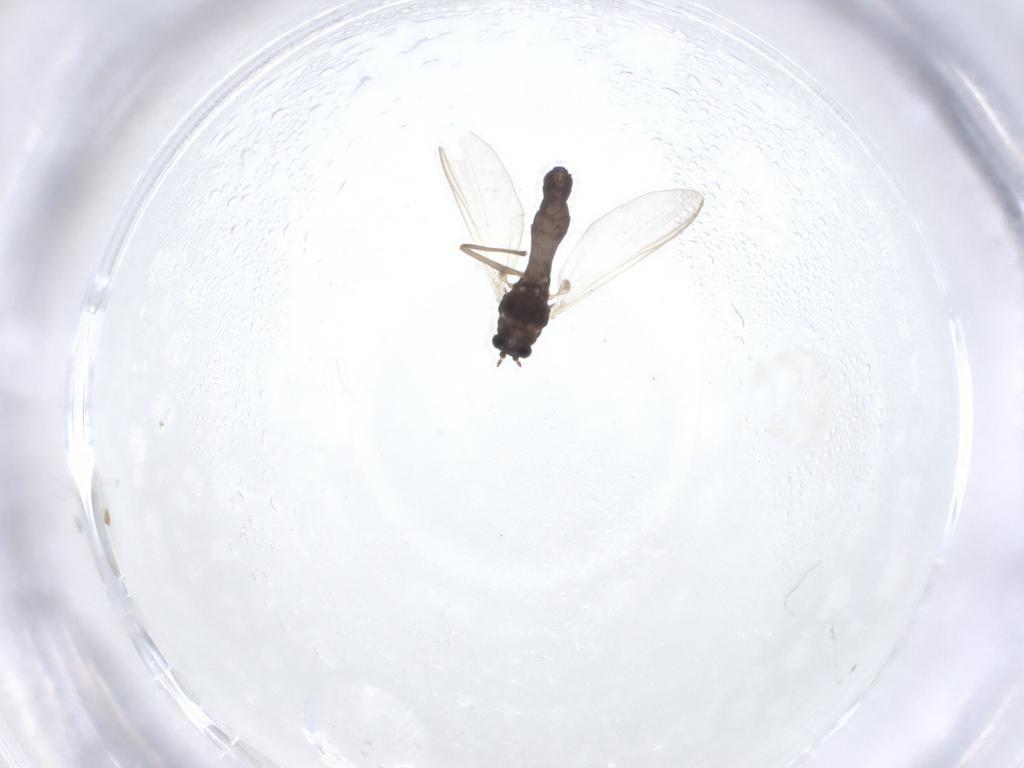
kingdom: Animalia
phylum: Arthropoda
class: Insecta
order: Diptera
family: Chironomidae
